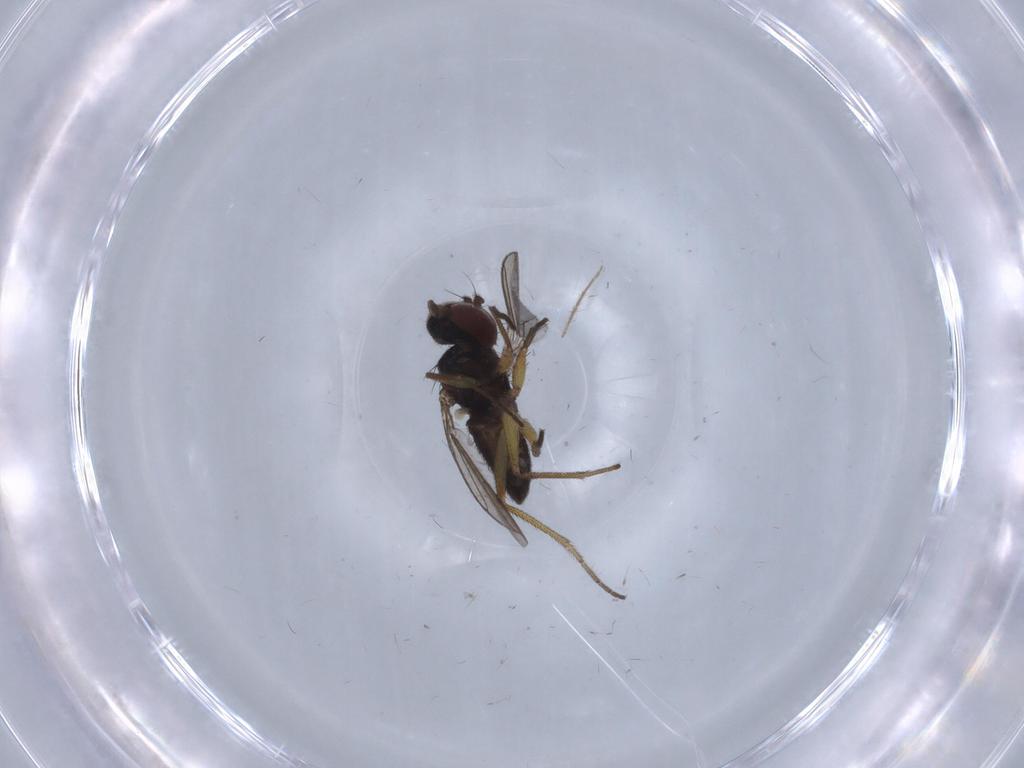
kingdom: Animalia
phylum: Arthropoda
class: Insecta
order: Diptera
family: Dolichopodidae
